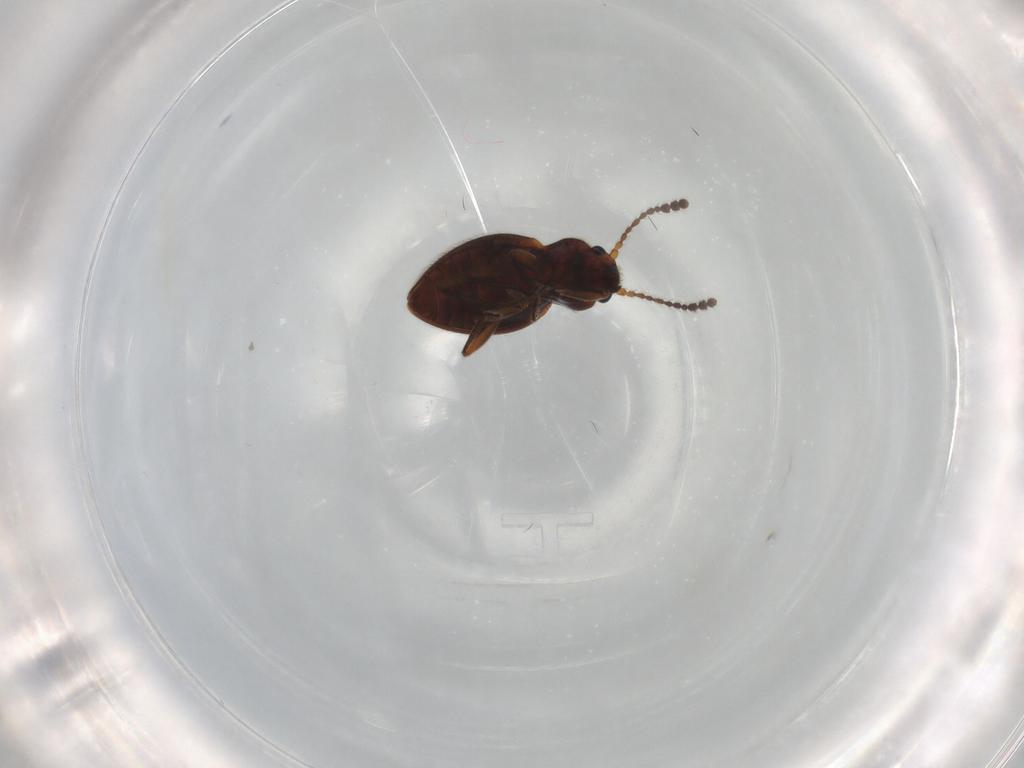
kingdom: Animalia
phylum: Arthropoda
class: Insecta
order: Coleoptera
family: Erotylidae
